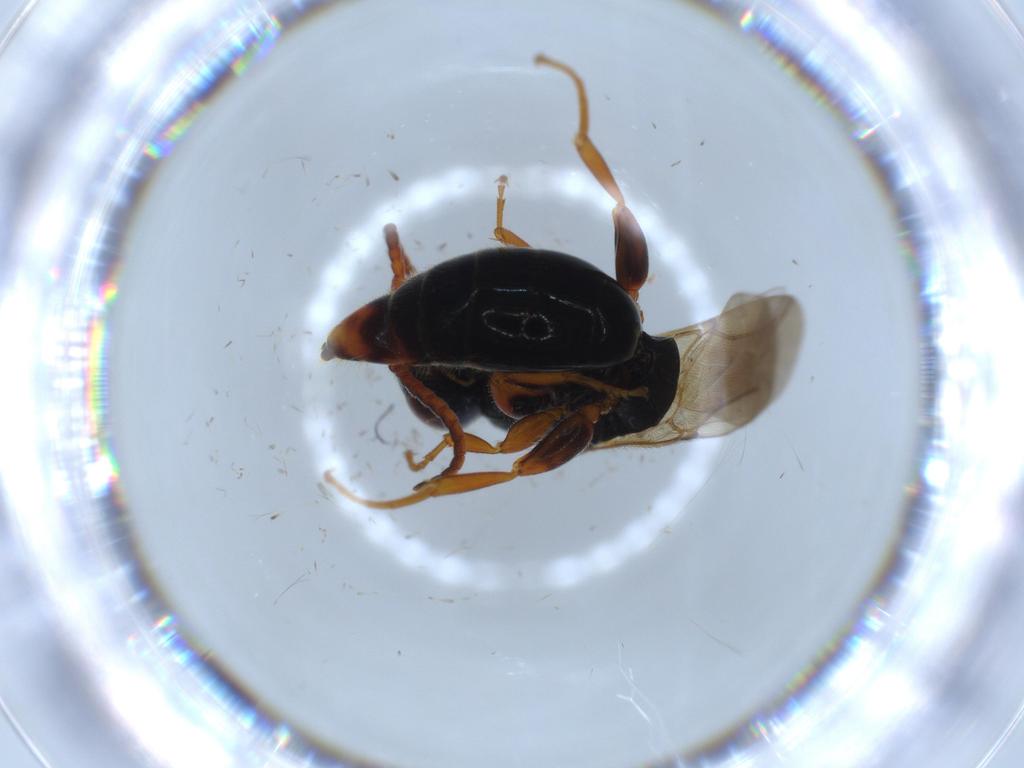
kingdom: Animalia
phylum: Arthropoda
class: Insecta
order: Hymenoptera
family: Bethylidae
